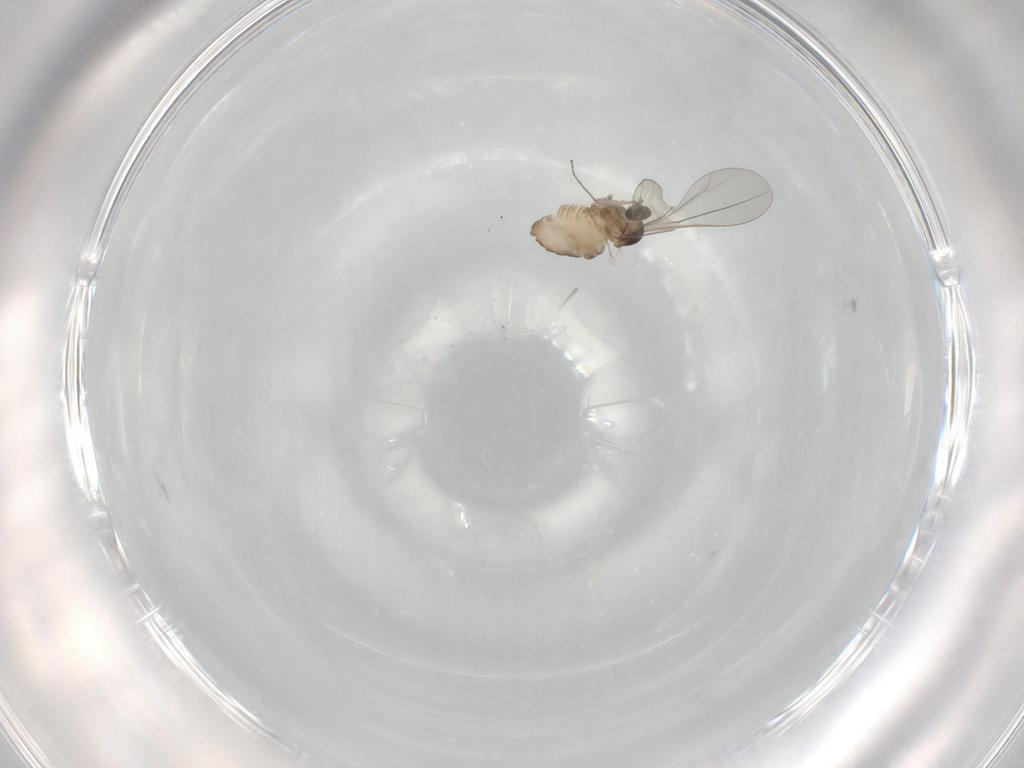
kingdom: Animalia
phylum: Arthropoda
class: Insecta
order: Diptera
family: Cecidomyiidae
